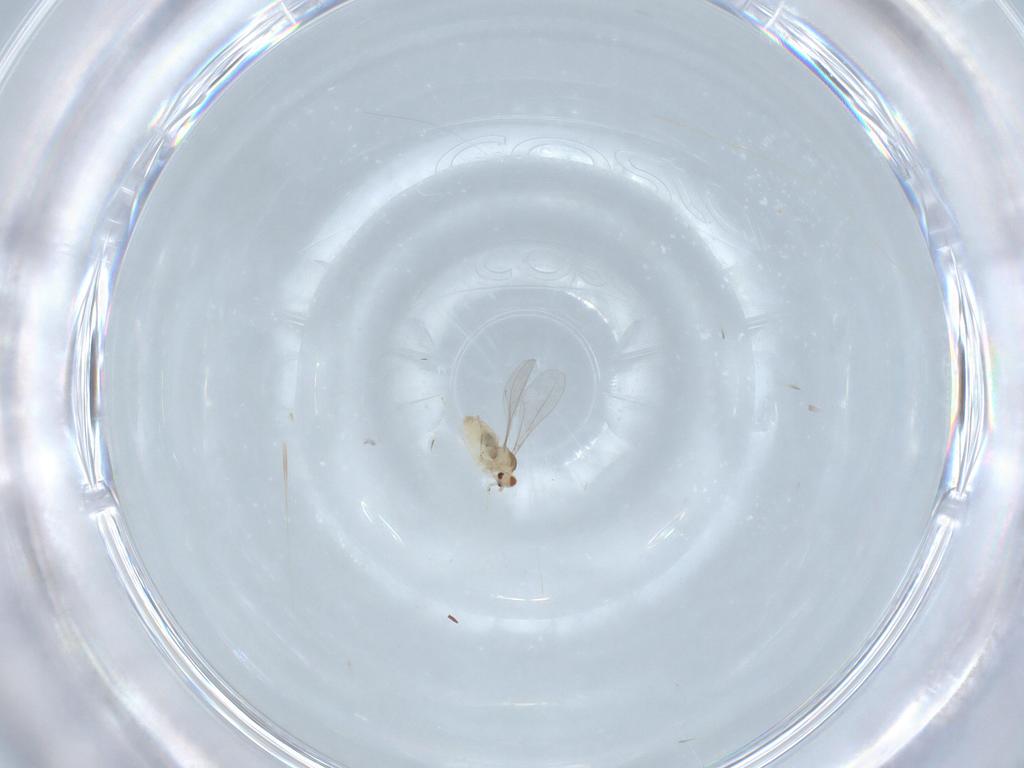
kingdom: Animalia
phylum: Arthropoda
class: Insecta
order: Diptera
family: Cecidomyiidae
